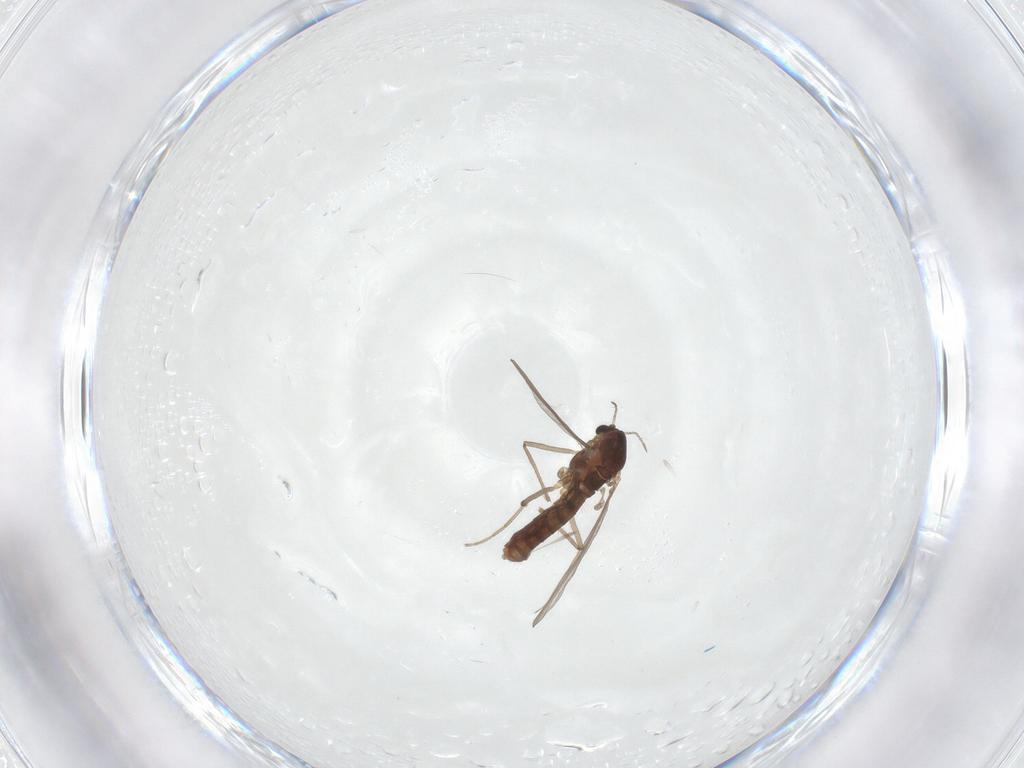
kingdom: Animalia
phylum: Arthropoda
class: Insecta
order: Diptera
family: Chironomidae
